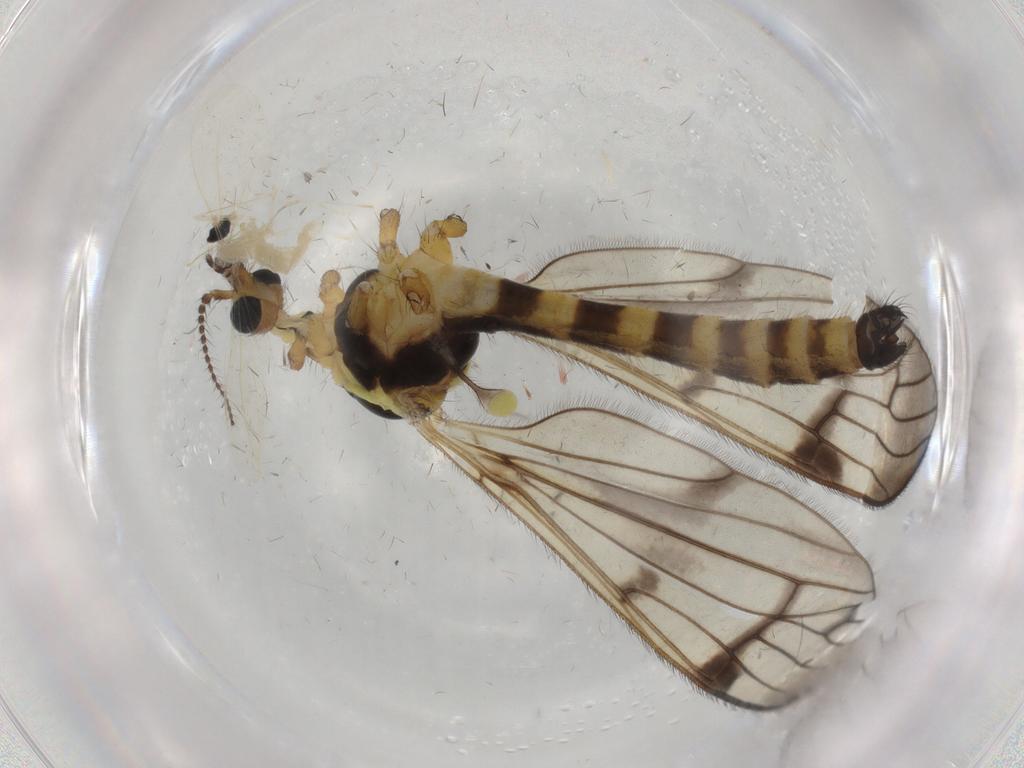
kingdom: Animalia
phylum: Arthropoda
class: Insecta
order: Diptera
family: Limoniidae
